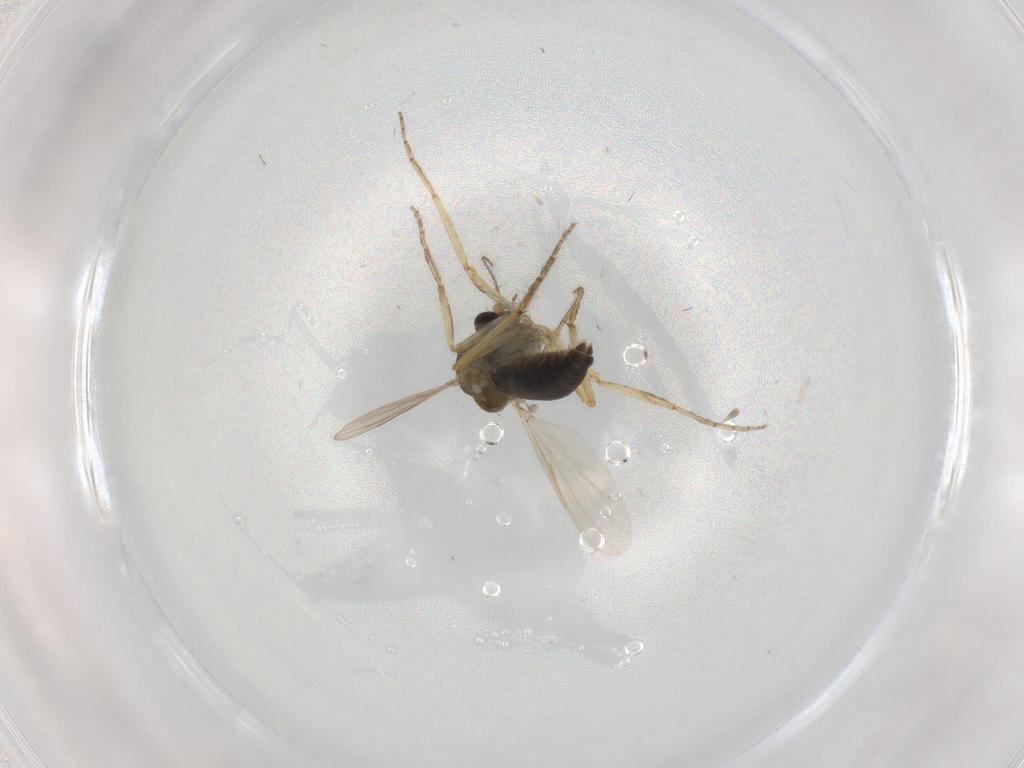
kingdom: Animalia
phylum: Arthropoda
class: Insecta
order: Diptera
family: Ceratopogonidae
